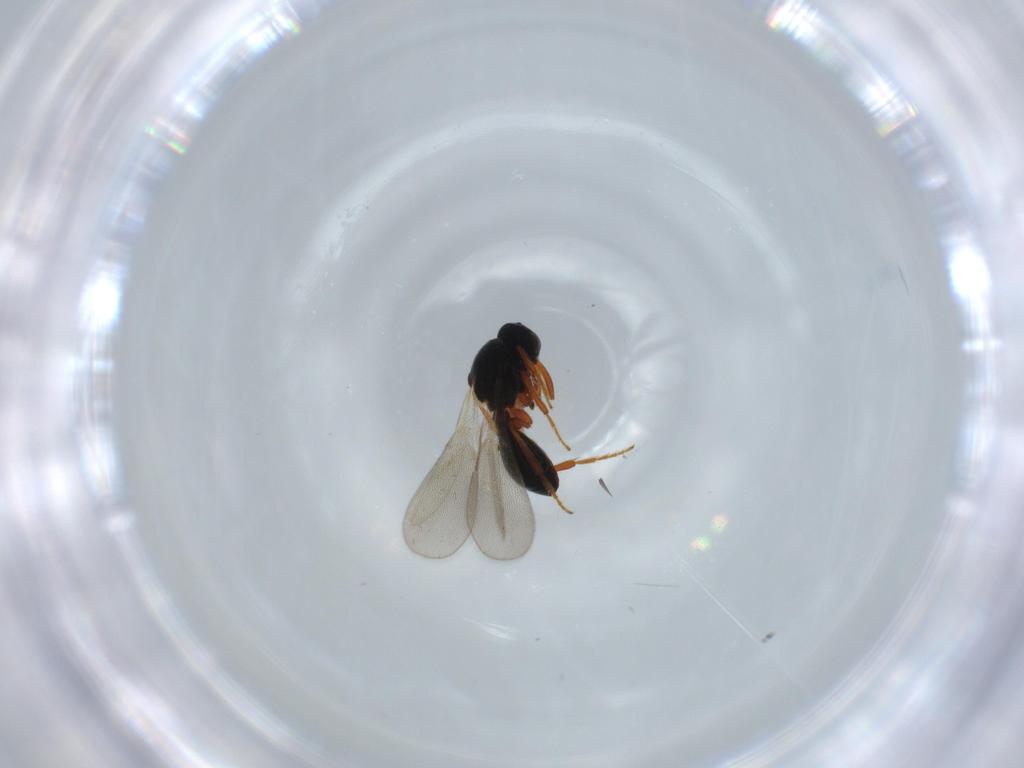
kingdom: Animalia
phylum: Arthropoda
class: Insecta
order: Hymenoptera
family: Platygastridae
